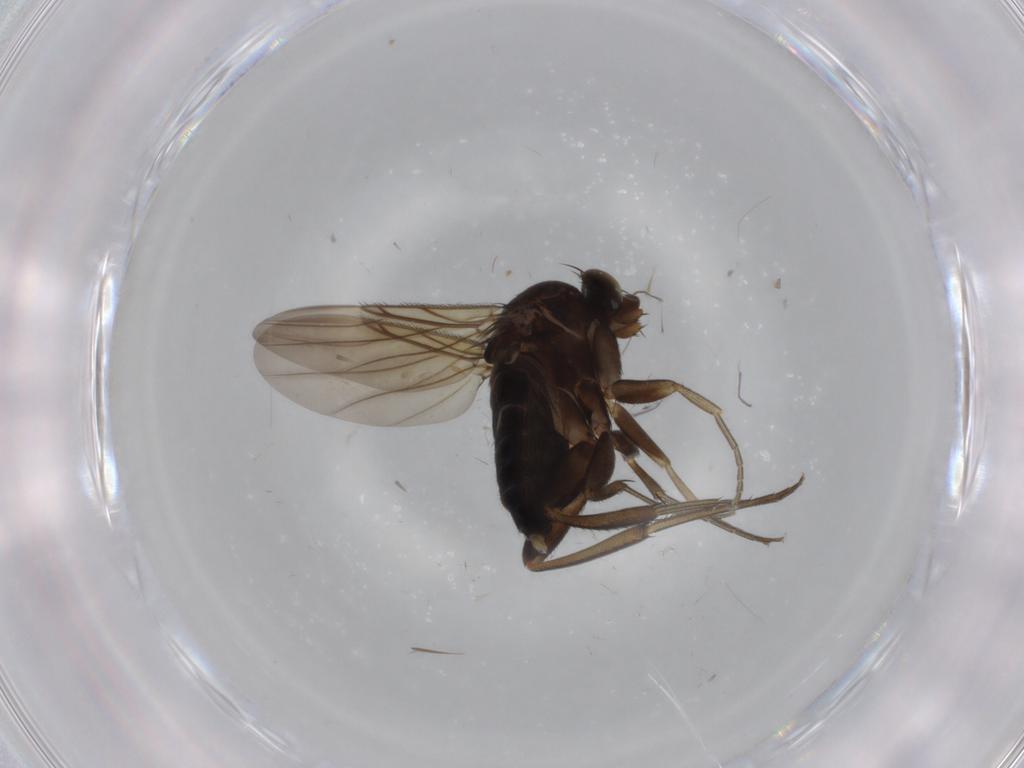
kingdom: Animalia
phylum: Arthropoda
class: Insecta
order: Diptera
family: Phoridae
